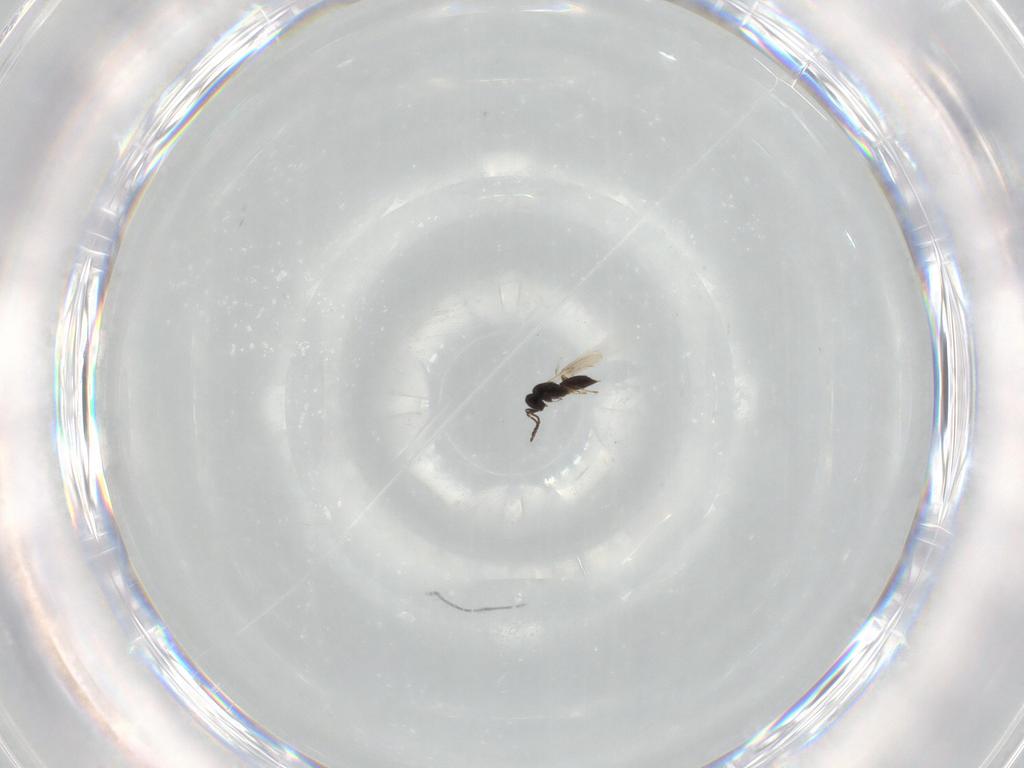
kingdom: Animalia
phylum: Arthropoda
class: Insecta
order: Hymenoptera
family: Scelionidae
